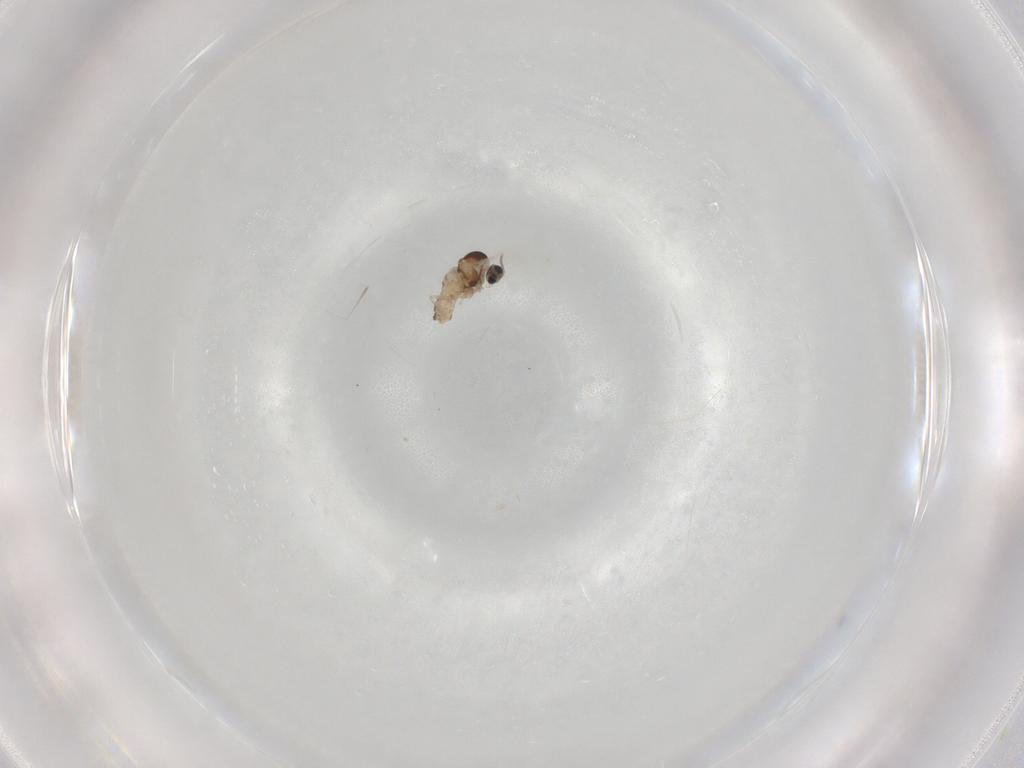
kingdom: Animalia
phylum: Arthropoda
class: Insecta
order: Diptera
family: Cecidomyiidae
